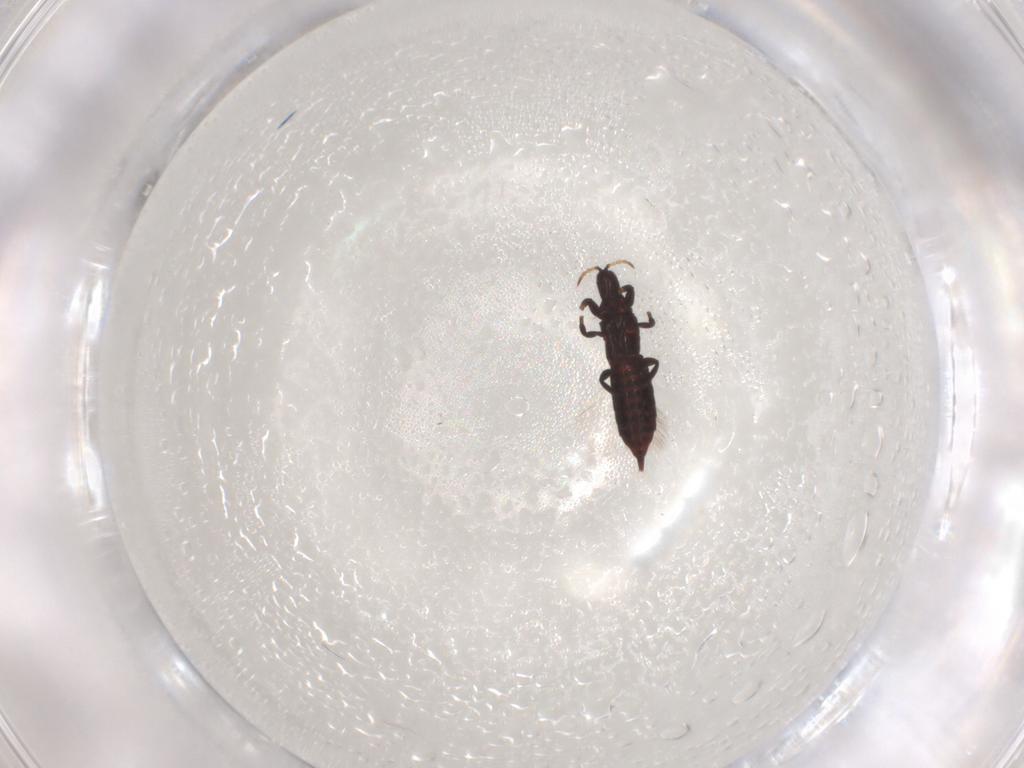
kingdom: Animalia
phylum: Arthropoda
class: Insecta
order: Thysanoptera
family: Phlaeothripidae
